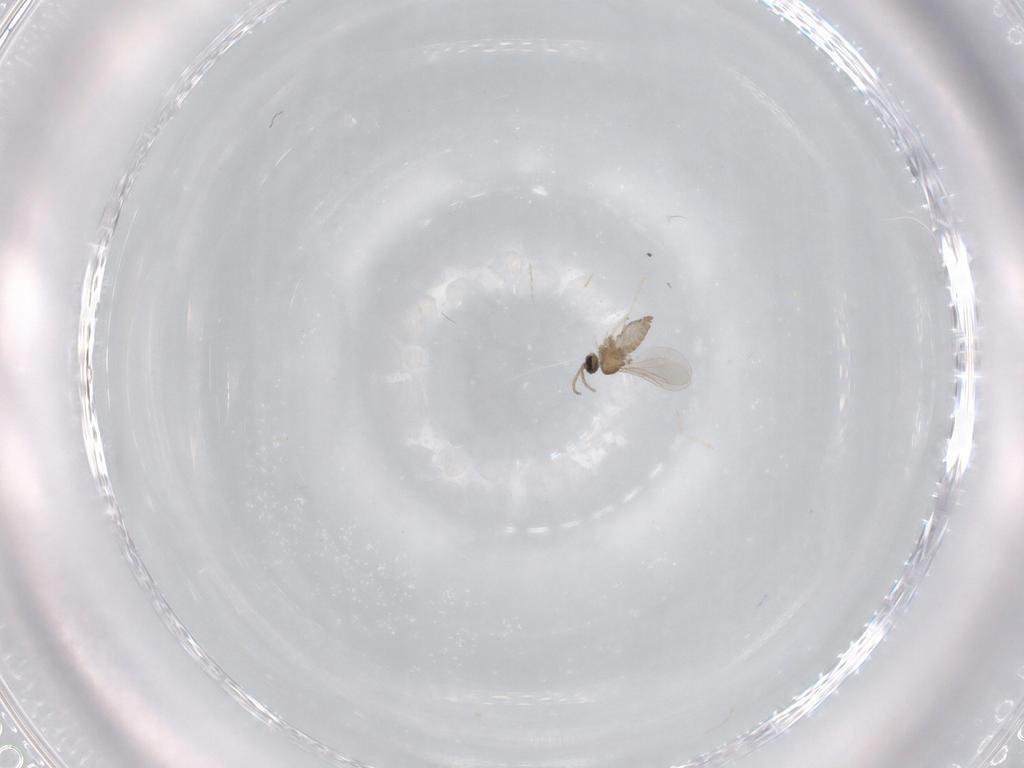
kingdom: Animalia
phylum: Arthropoda
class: Insecta
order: Diptera
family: Cecidomyiidae
